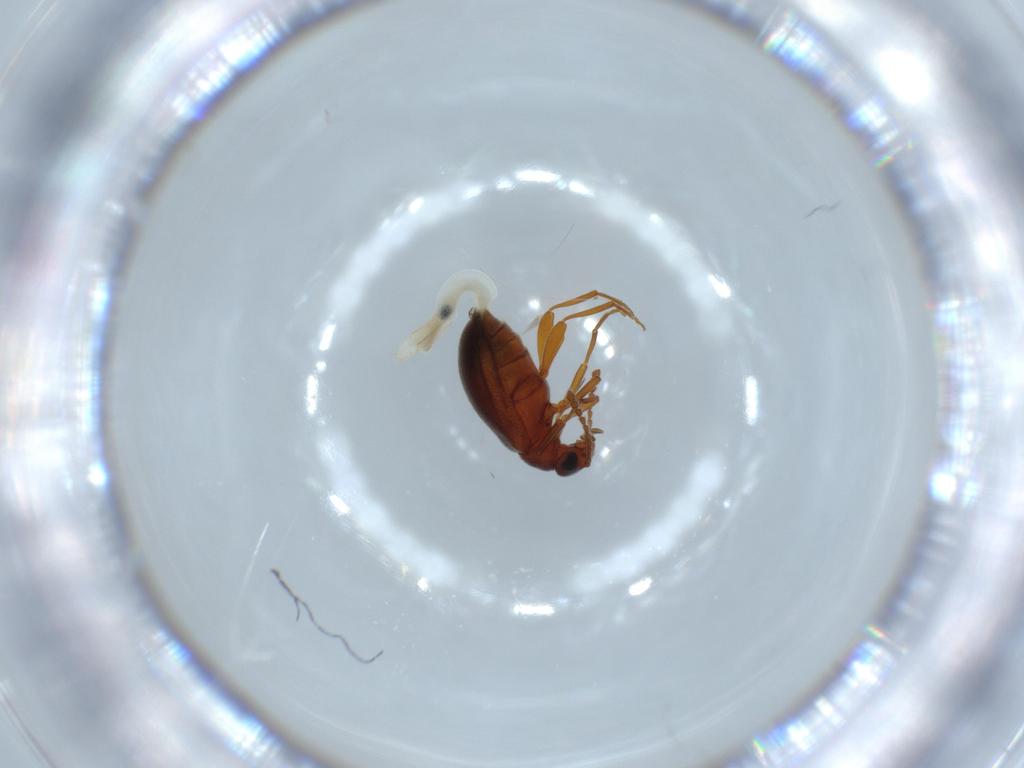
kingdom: Animalia
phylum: Arthropoda
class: Insecta
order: Coleoptera
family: Aderidae
